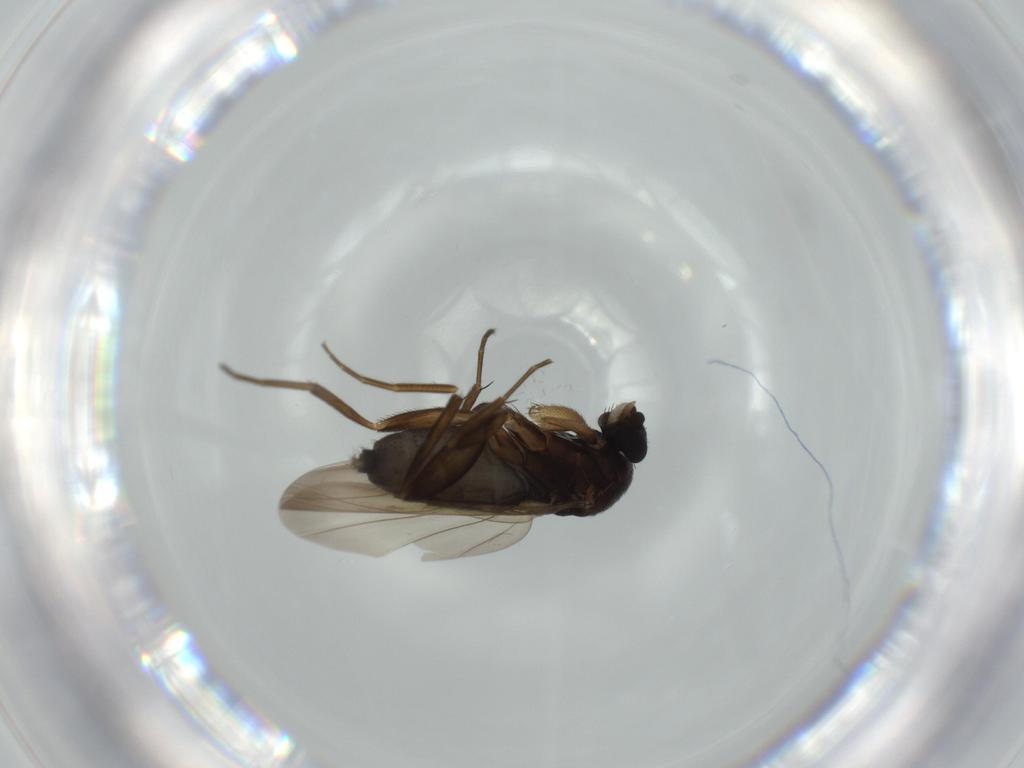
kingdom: Animalia
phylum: Arthropoda
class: Insecta
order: Diptera
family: Phoridae
